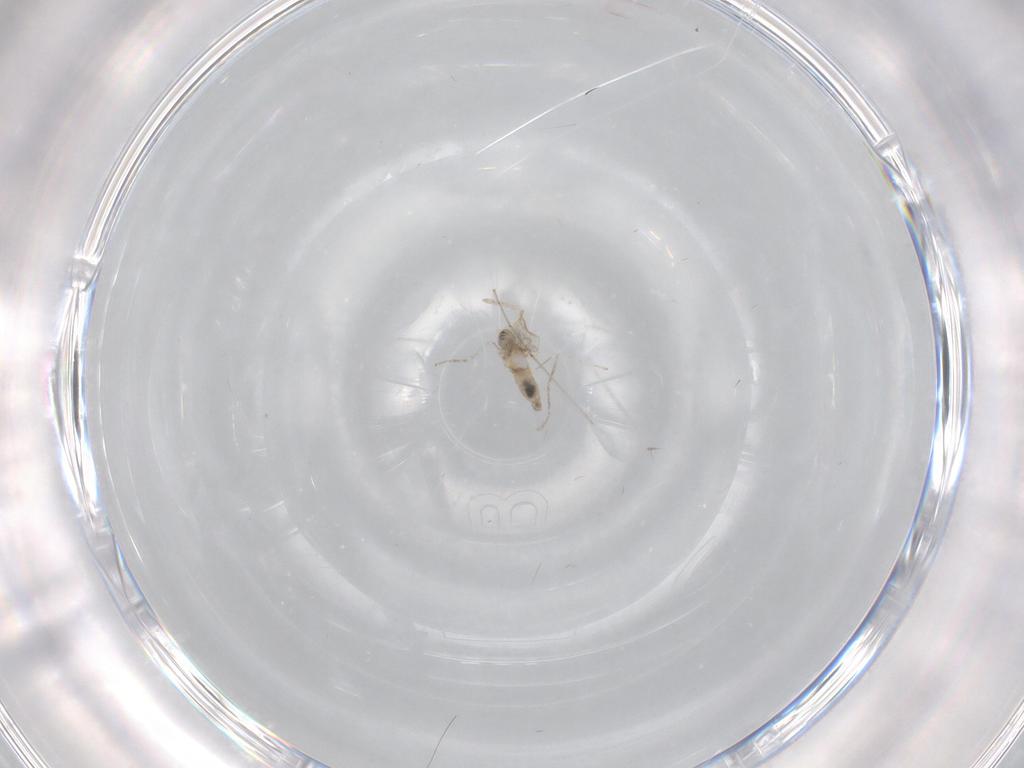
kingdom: Animalia
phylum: Arthropoda
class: Insecta
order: Diptera
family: Cecidomyiidae
